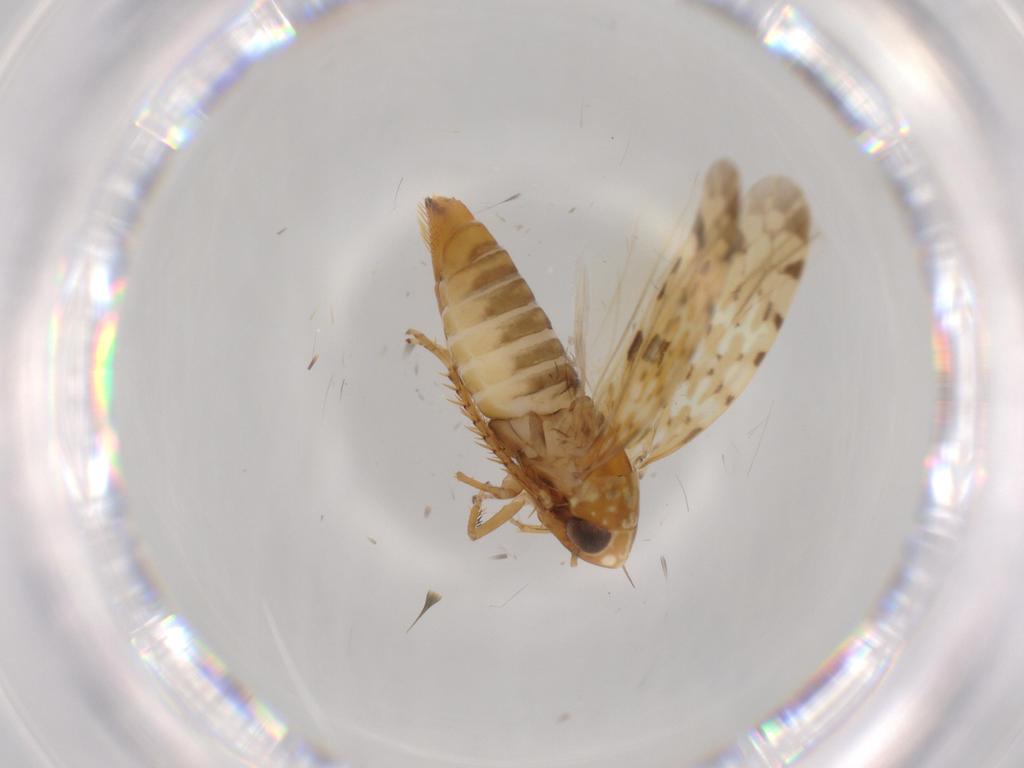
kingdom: Animalia
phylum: Arthropoda
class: Insecta
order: Hemiptera
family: Cicadellidae
